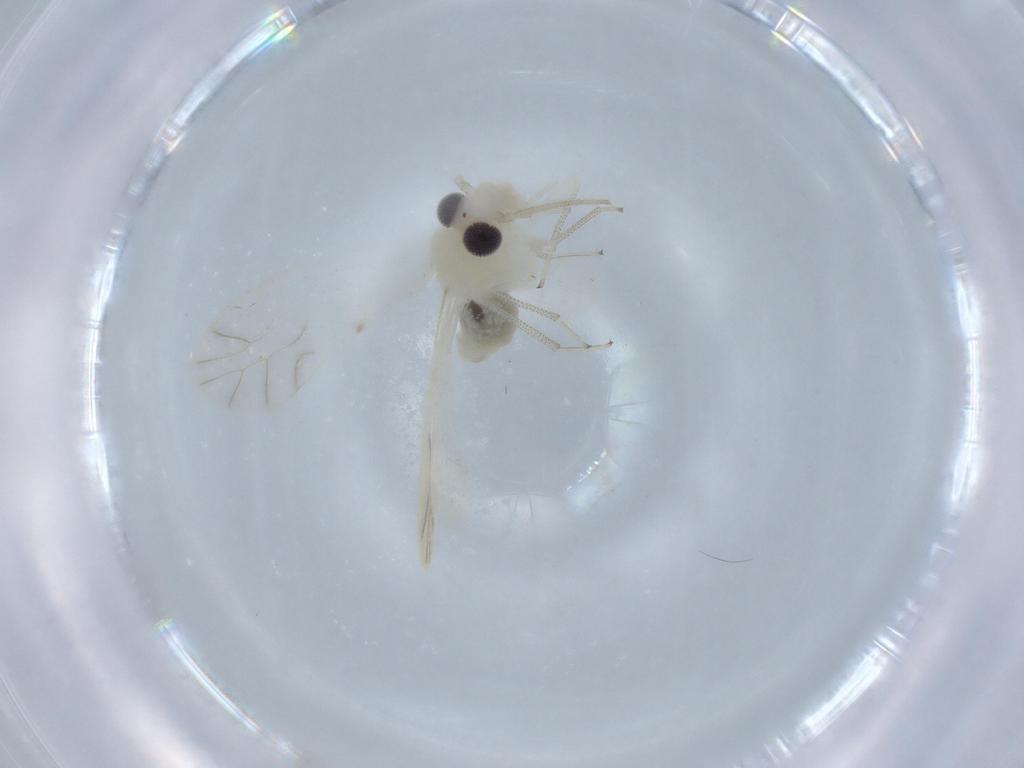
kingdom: Animalia
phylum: Arthropoda
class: Insecta
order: Psocodea
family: Caeciliusidae
